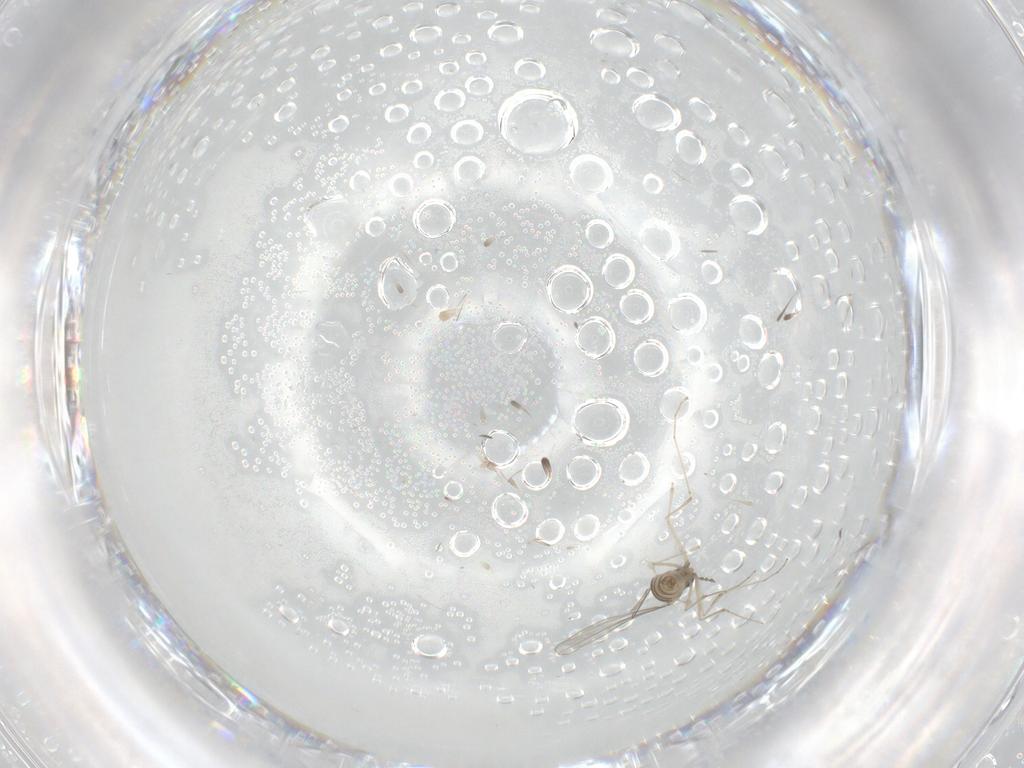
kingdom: Animalia
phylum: Arthropoda
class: Insecta
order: Diptera
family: Cecidomyiidae
